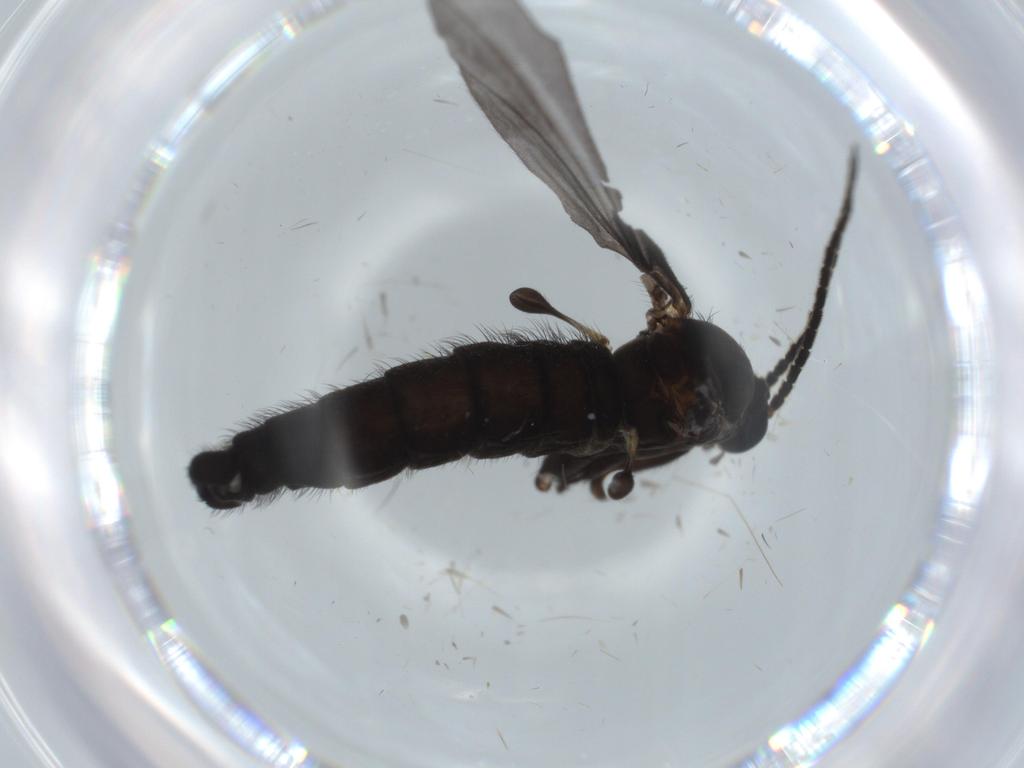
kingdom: Animalia
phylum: Arthropoda
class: Insecta
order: Diptera
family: Sciaridae
